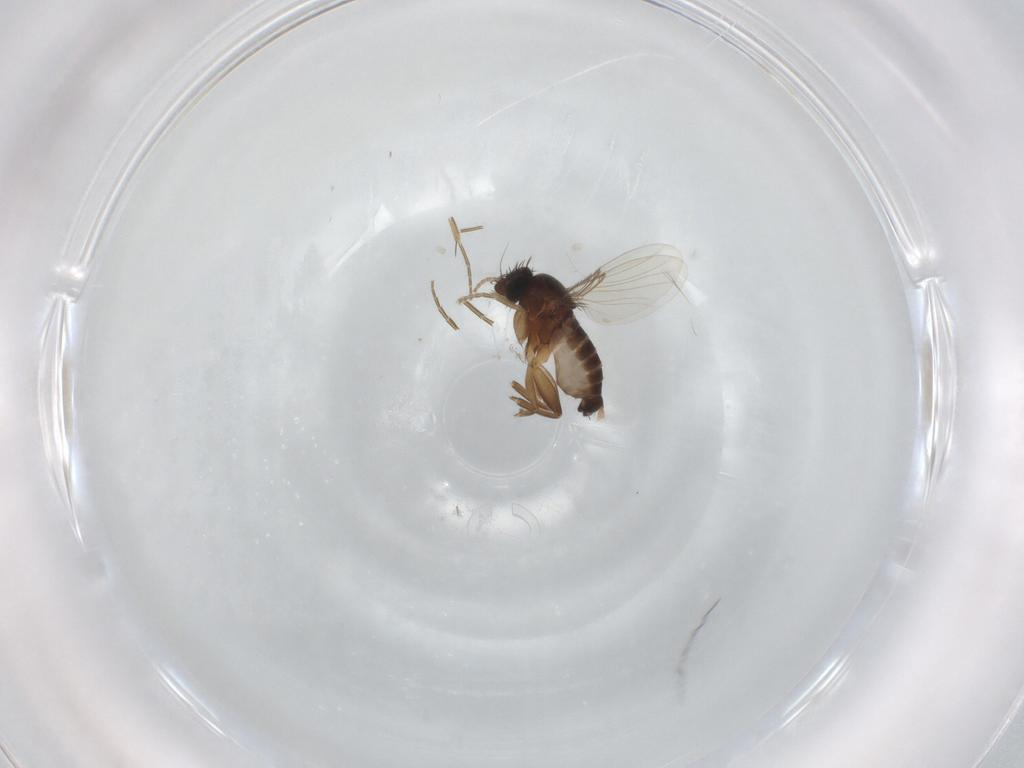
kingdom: Animalia
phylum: Arthropoda
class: Insecta
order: Diptera
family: Phoridae
